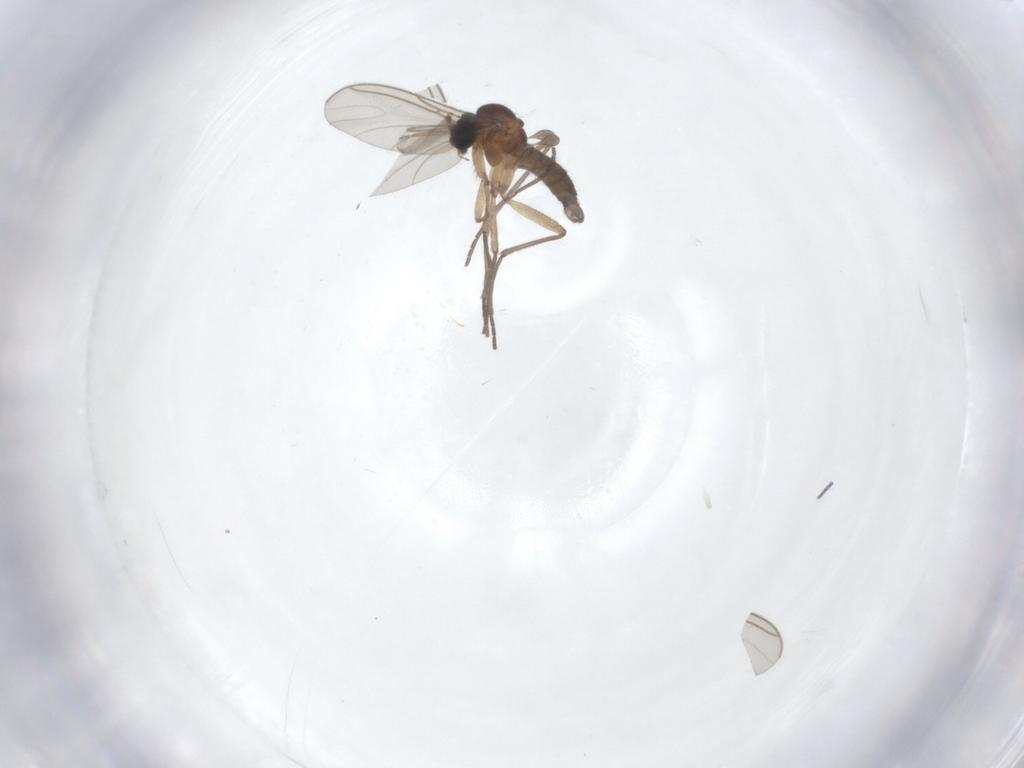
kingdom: Animalia
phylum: Arthropoda
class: Insecta
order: Diptera
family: Sciaridae
